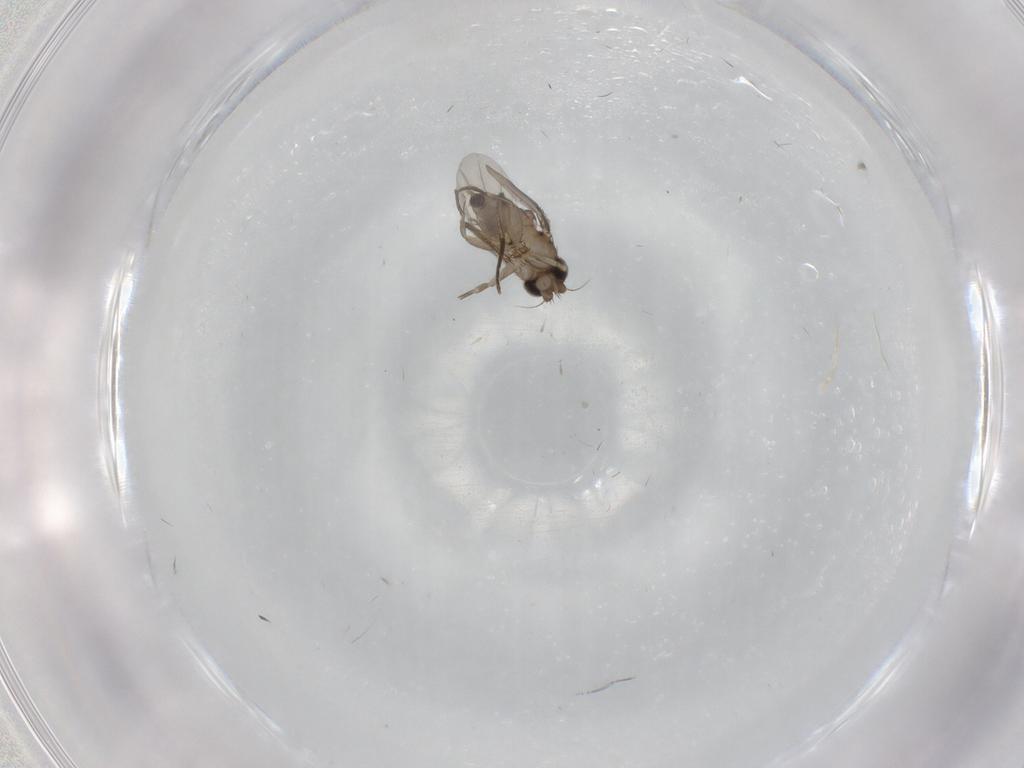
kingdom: Animalia
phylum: Arthropoda
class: Insecta
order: Diptera
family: Phoridae
